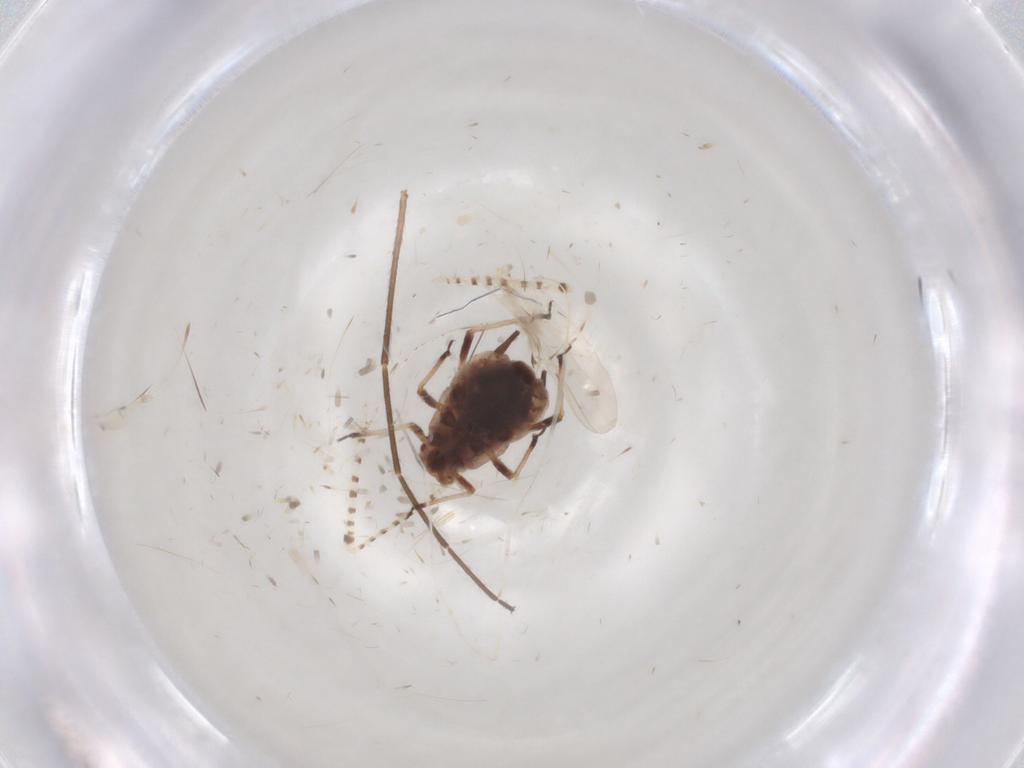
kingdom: Animalia
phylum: Arthropoda
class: Insecta
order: Hemiptera
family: Aphididae
